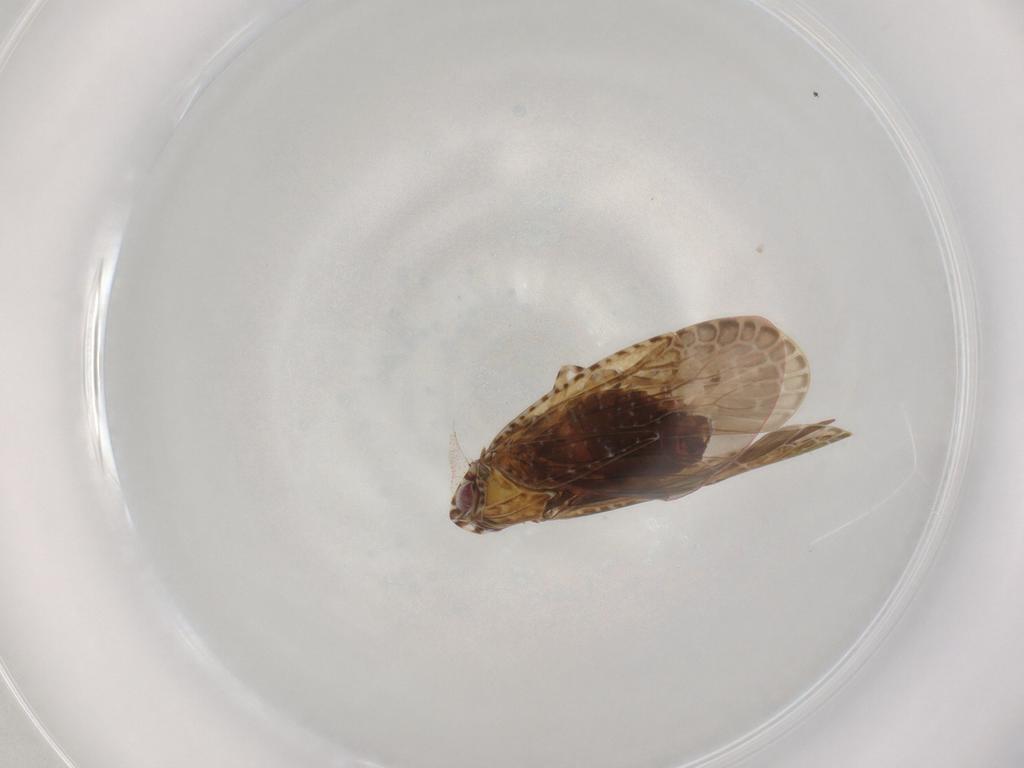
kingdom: Animalia
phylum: Arthropoda
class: Insecta
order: Hemiptera
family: Achilidae
